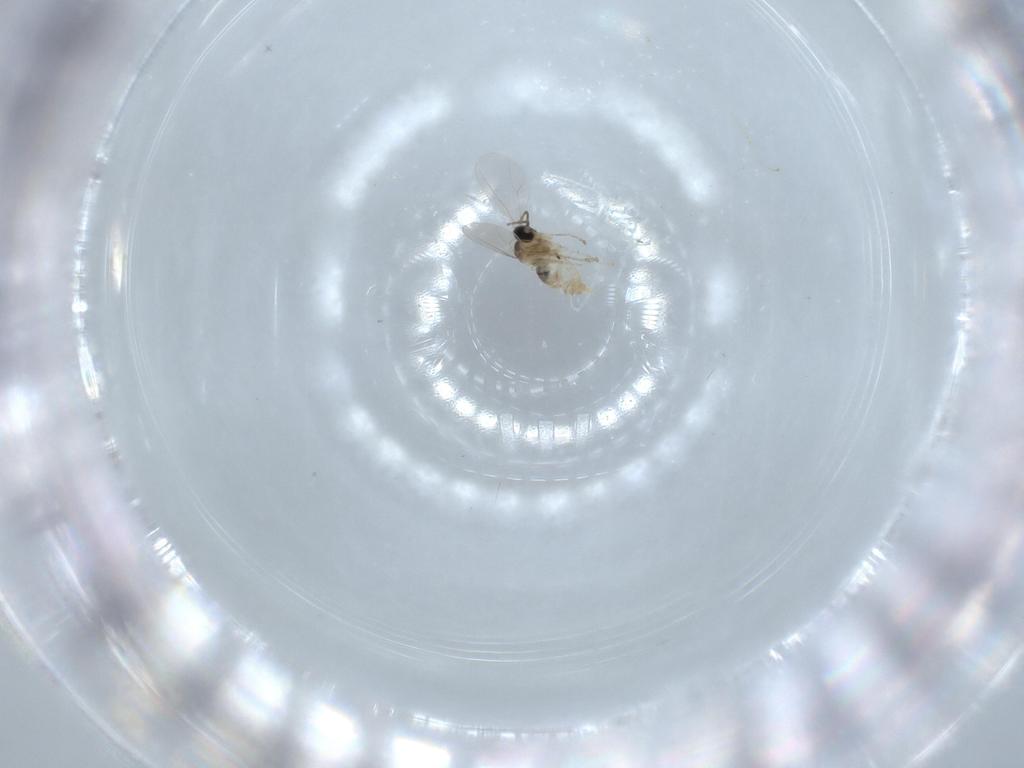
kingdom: Animalia
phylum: Arthropoda
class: Insecta
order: Diptera
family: Cecidomyiidae
